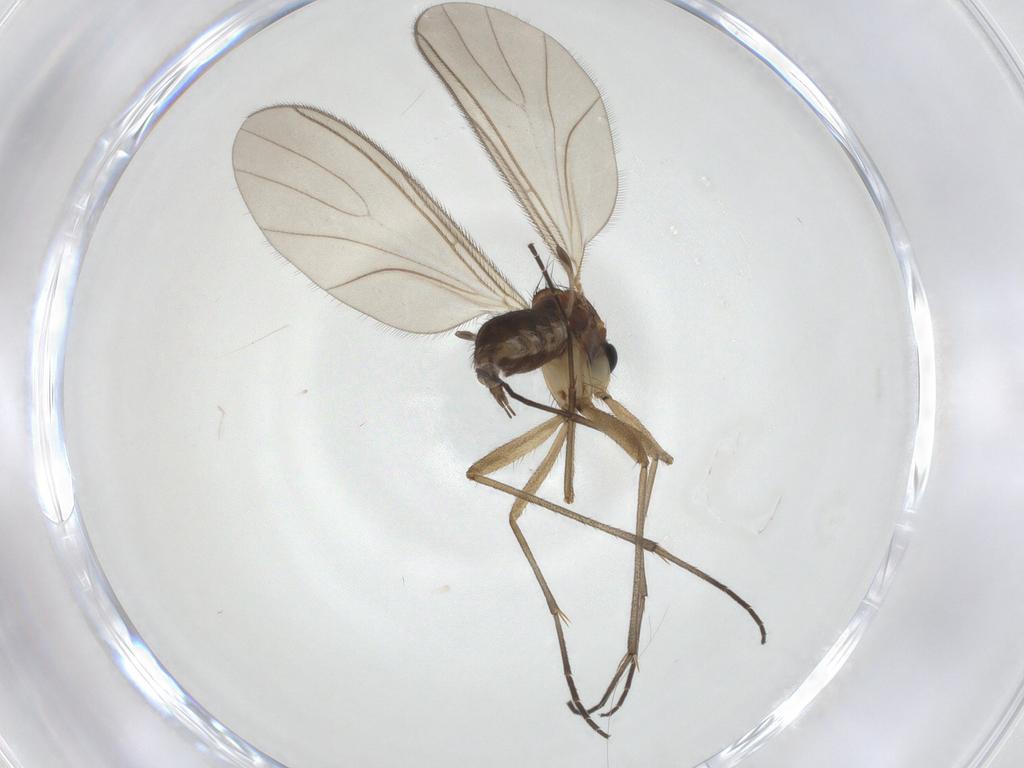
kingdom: Animalia
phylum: Arthropoda
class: Insecta
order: Diptera
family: Sciaridae
